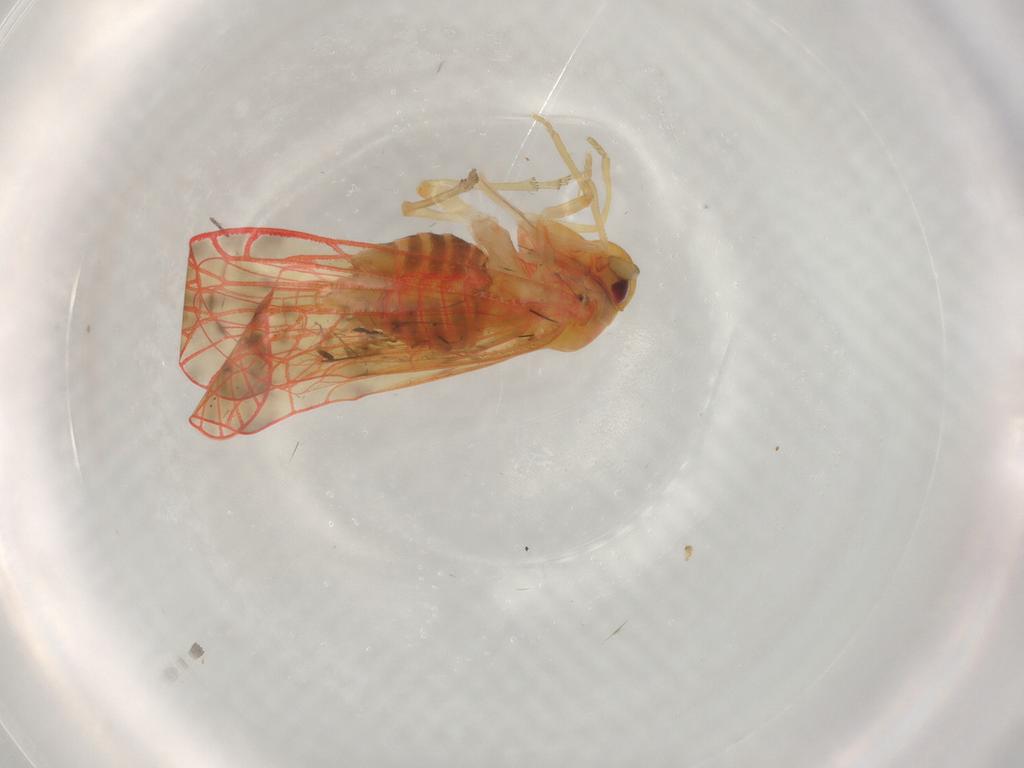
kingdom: Animalia
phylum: Arthropoda
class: Insecta
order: Hemiptera
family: Derbidae
